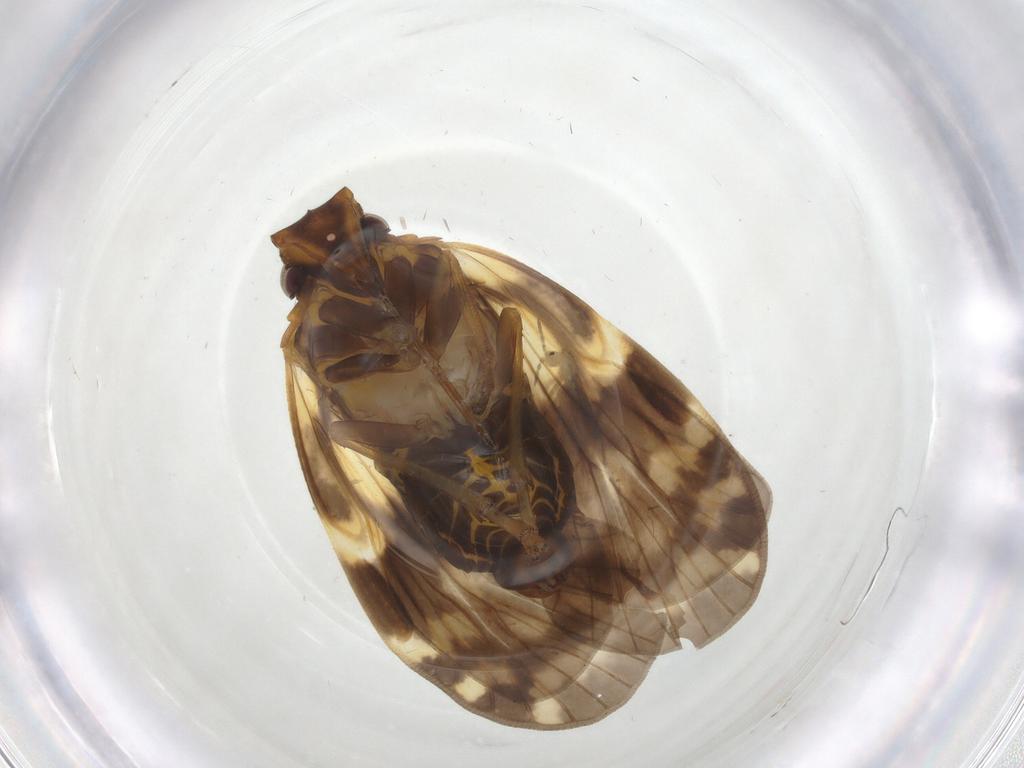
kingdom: Animalia
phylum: Arthropoda
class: Insecta
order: Hemiptera
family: Cixiidae
